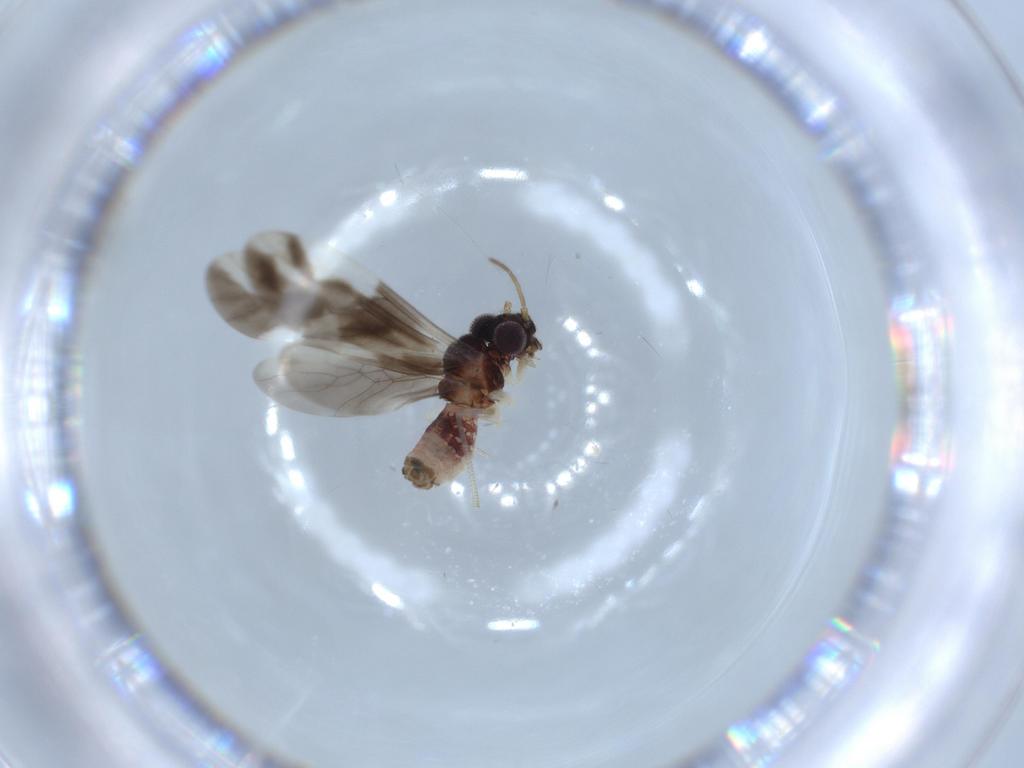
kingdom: Animalia
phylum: Arthropoda
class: Insecta
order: Psocodea
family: Caeciliusidae
